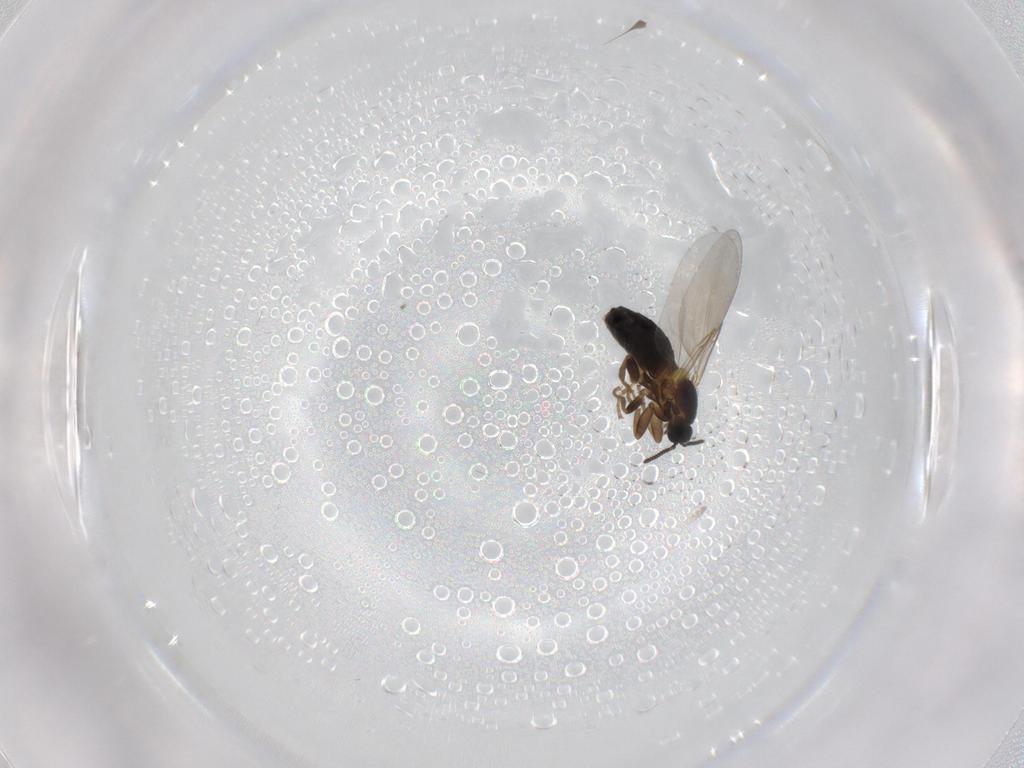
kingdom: Animalia
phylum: Arthropoda
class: Insecta
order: Diptera
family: Scatopsidae
